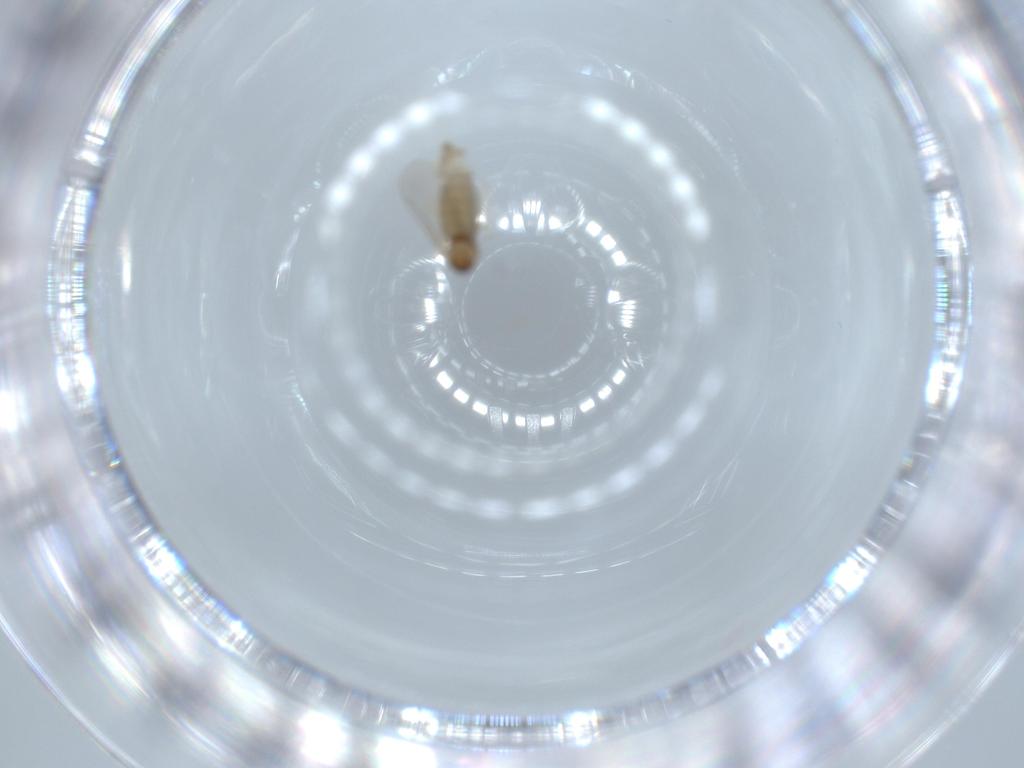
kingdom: Animalia
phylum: Arthropoda
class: Insecta
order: Diptera
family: Cecidomyiidae
